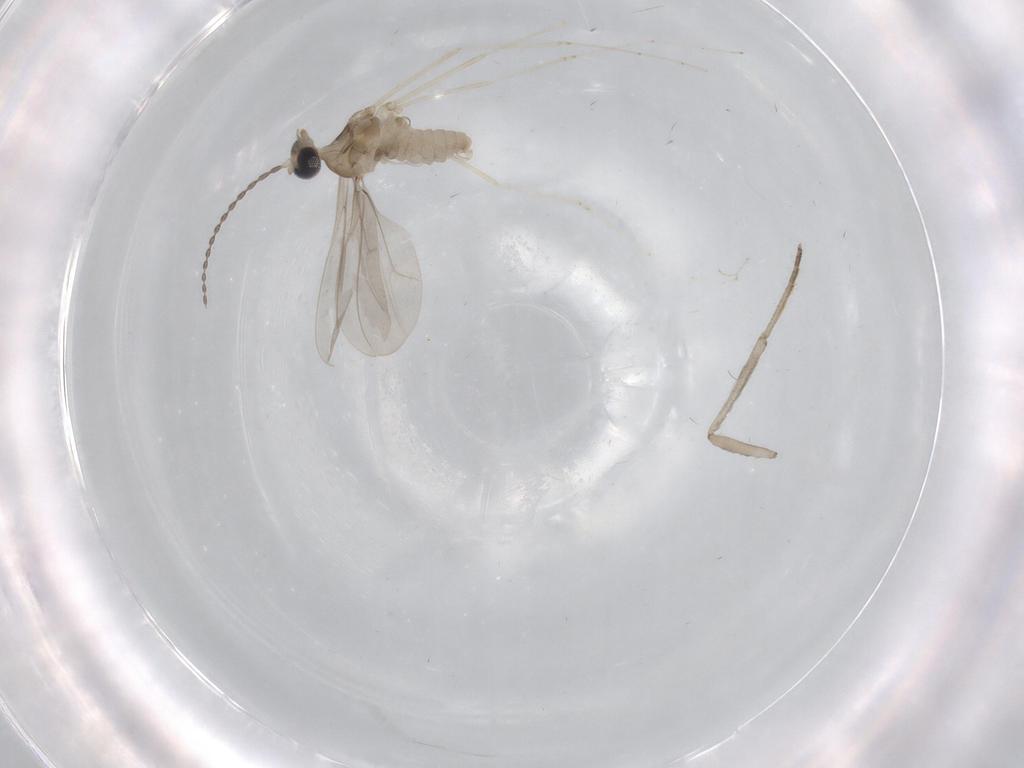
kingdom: Animalia
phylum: Arthropoda
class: Insecta
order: Diptera
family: Cecidomyiidae
